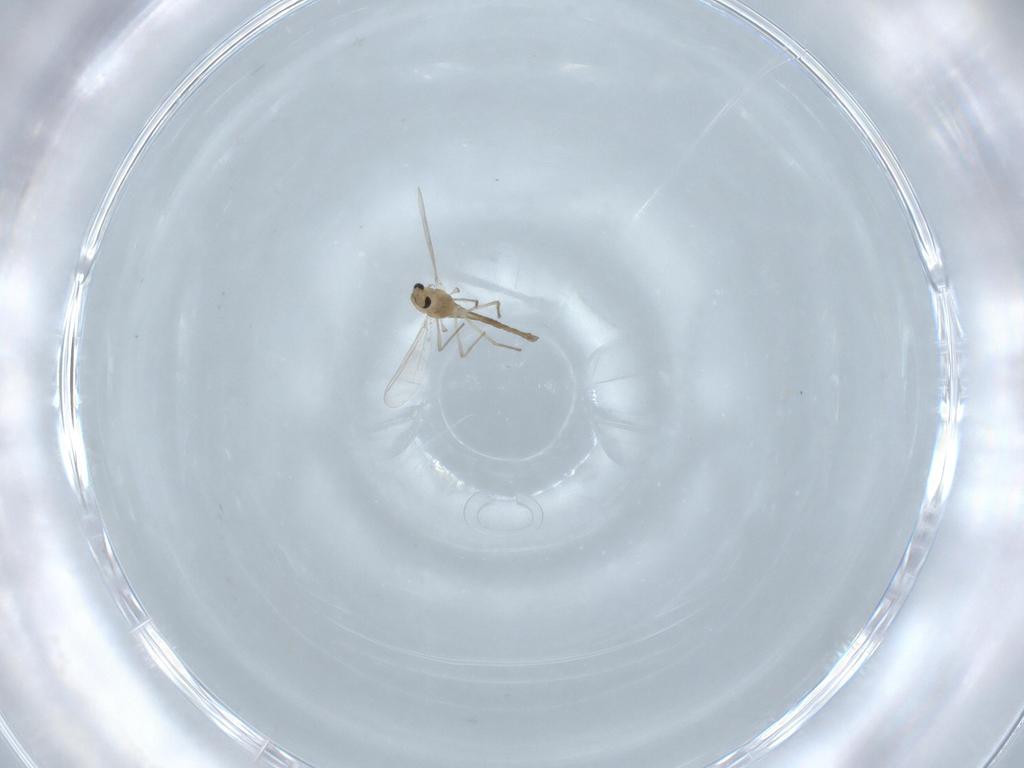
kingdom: Animalia
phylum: Arthropoda
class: Insecta
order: Diptera
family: Chironomidae
